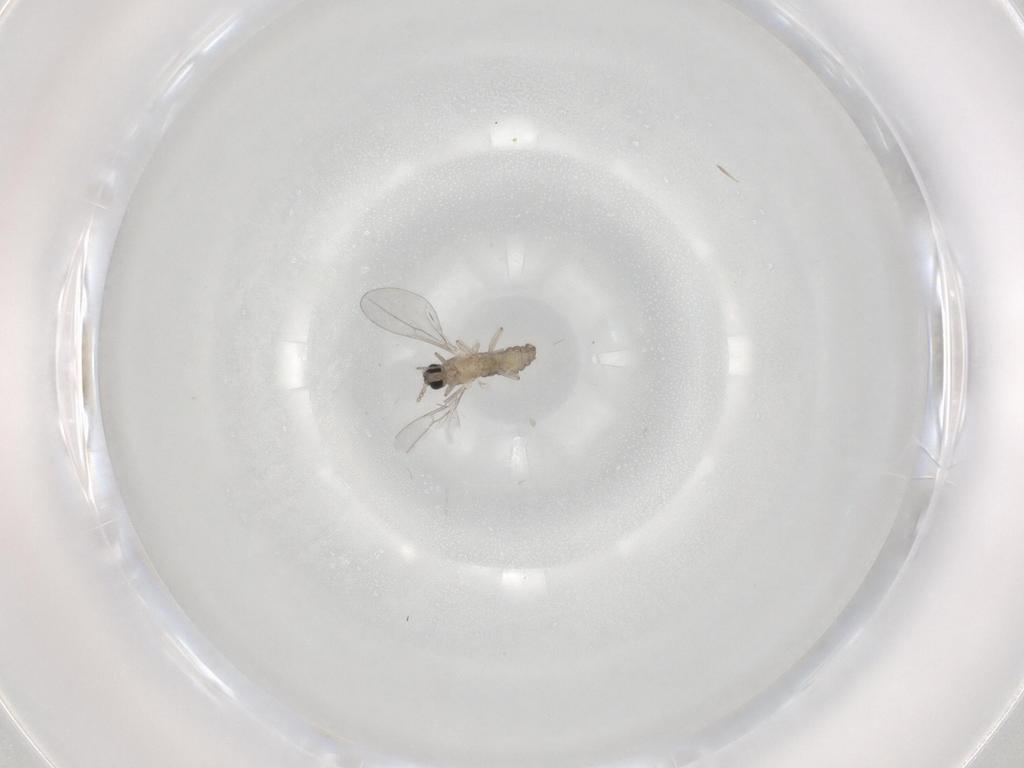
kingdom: Animalia
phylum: Arthropoda
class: Insecta
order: Diptera
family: Cecidomyiidae
